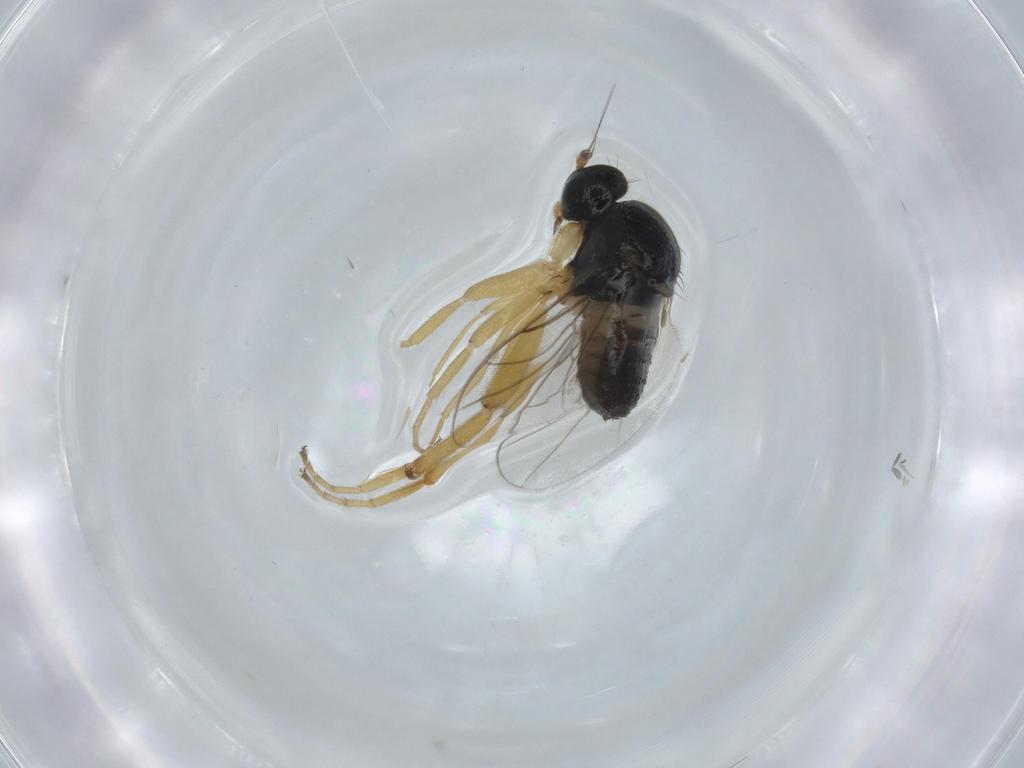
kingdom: Animalia
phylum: Arthropoda
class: Insecta
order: Diptera
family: Hybotidae
